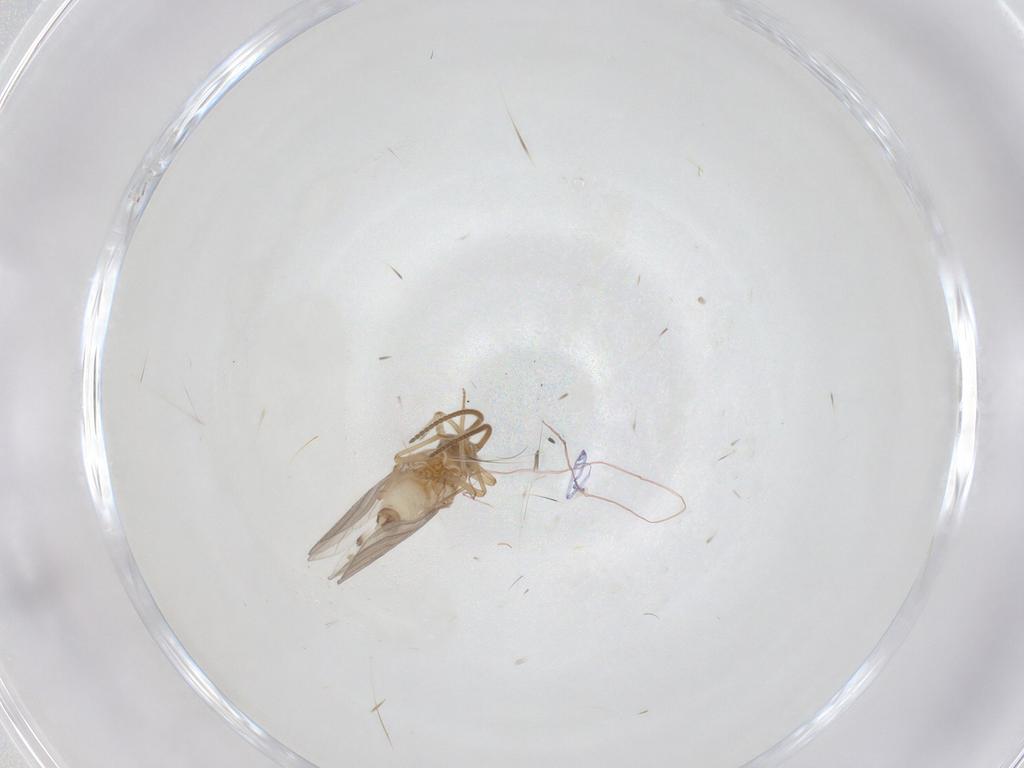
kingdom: Animalia
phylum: Arthropoda
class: Insecta
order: Neuroptera
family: Coniopterygidae
